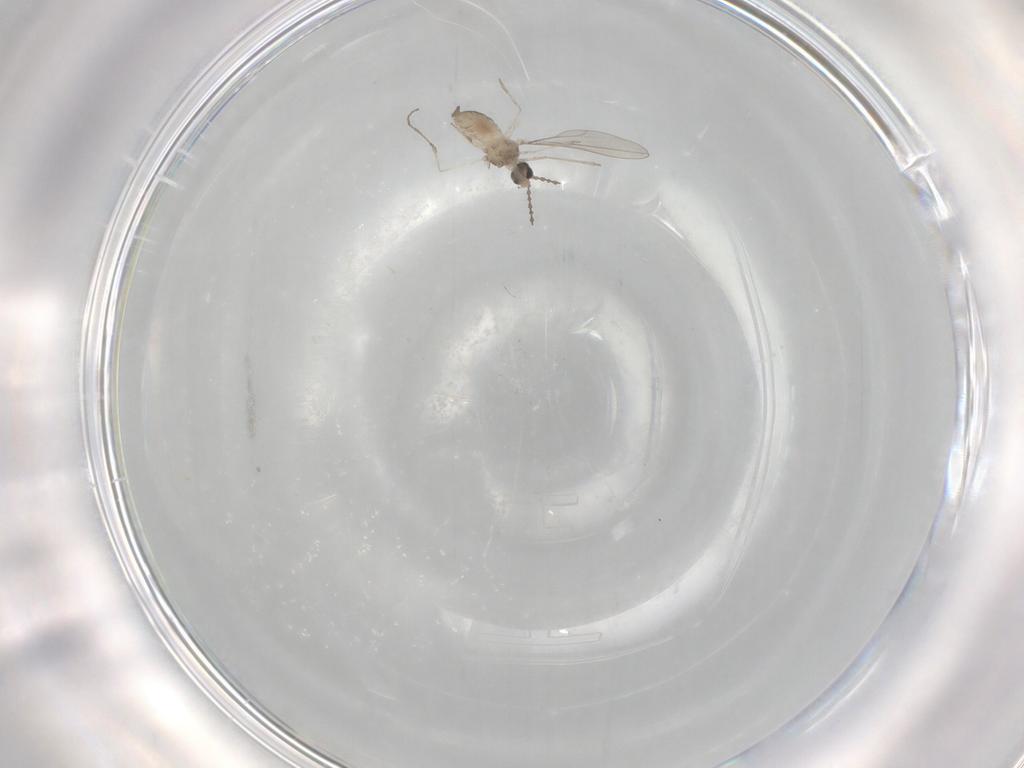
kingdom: Animalia
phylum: Arthropoda
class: Insecta
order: Diptera
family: Cecidomyiidae
